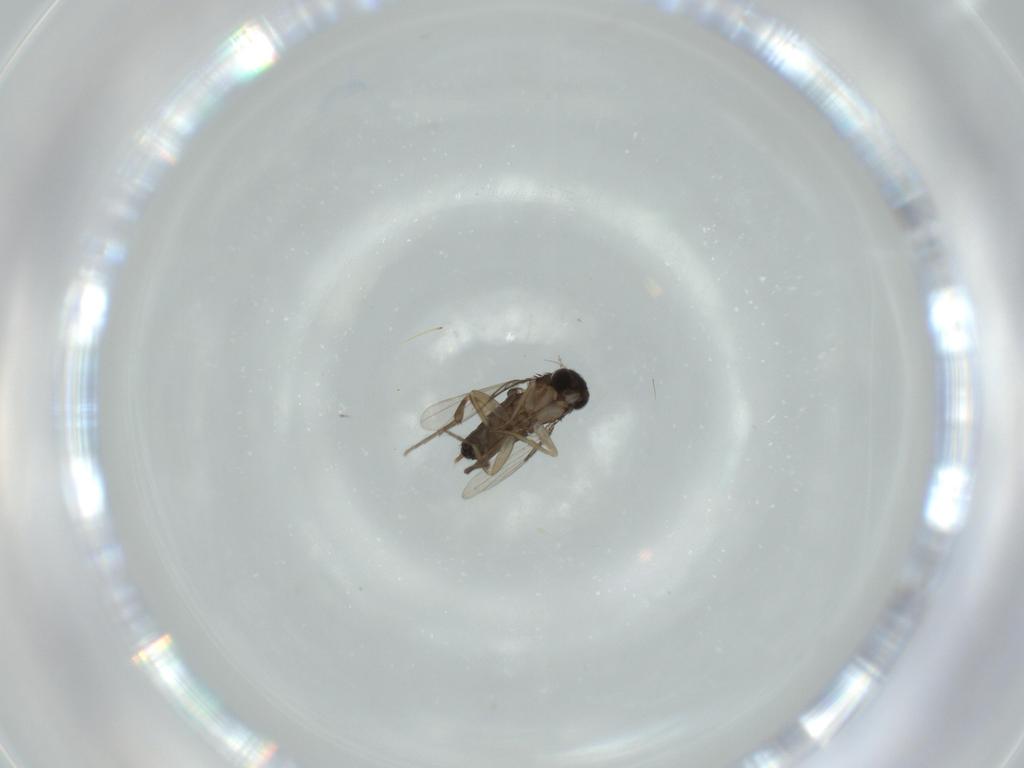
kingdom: Animalia
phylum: Arthropoda
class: Insecta
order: Diptera
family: Phoridae
